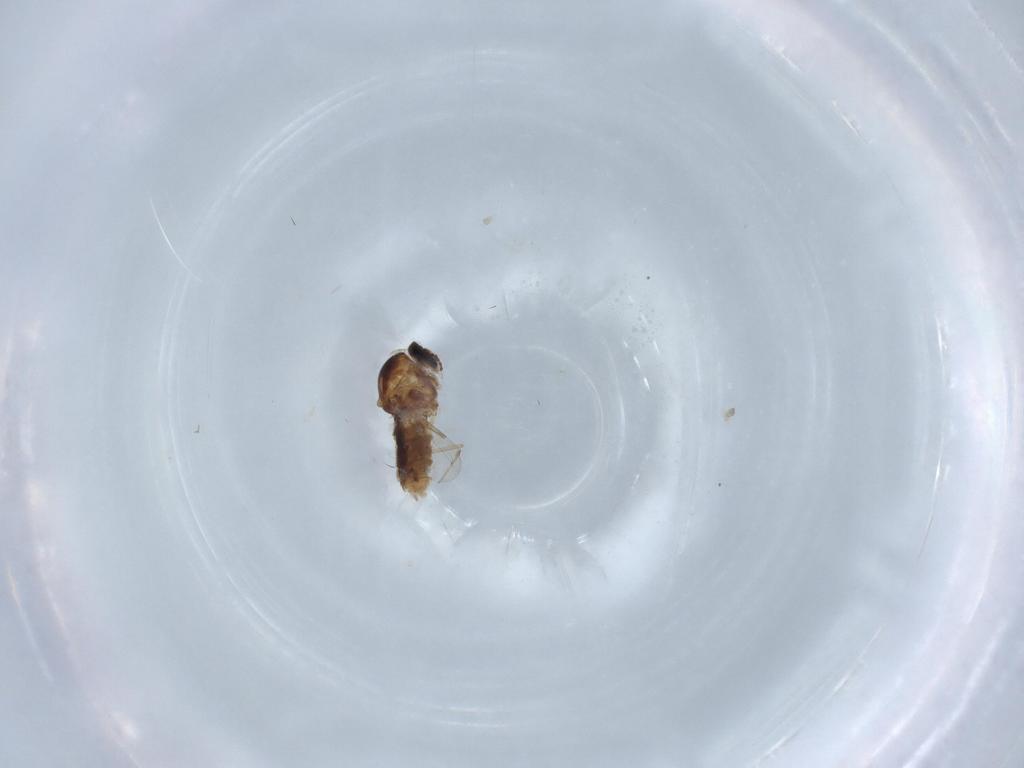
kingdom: Animalia
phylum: Arthropoda
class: Insecta
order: Diptera
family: Ceratopogonidae
